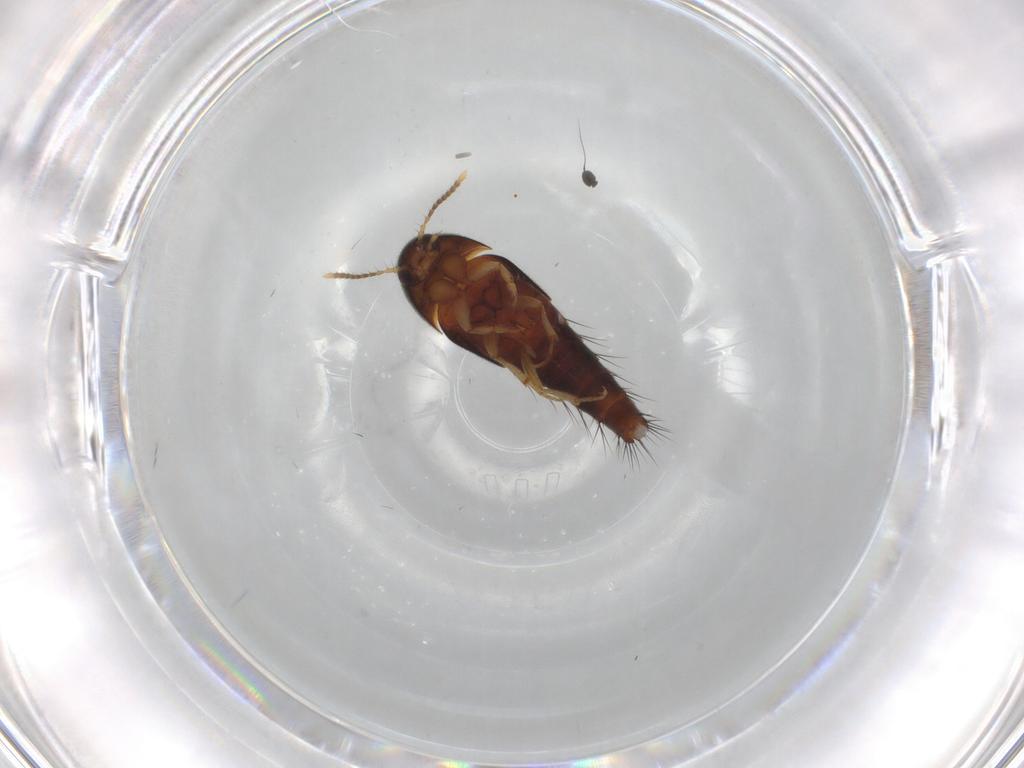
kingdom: Animalia
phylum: Arthropoda
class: Insecta
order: Coleoptera
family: Staphylinidae
